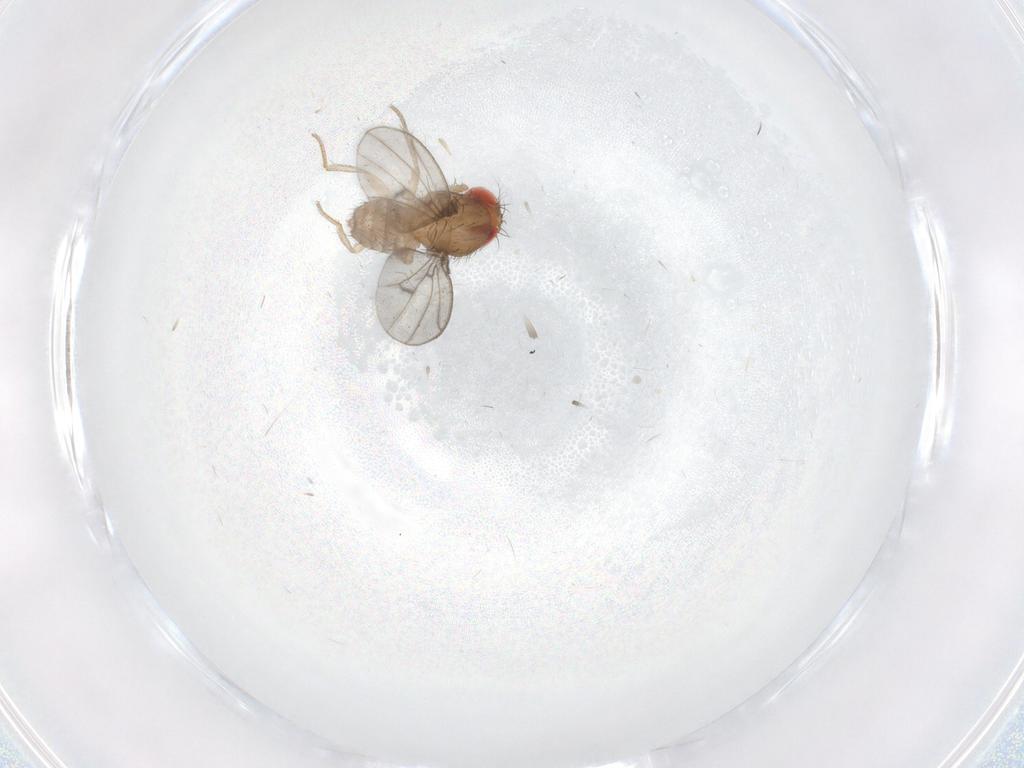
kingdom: Animalia
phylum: Arthropoda
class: Insecta
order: Diptera
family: Drosophilidae
